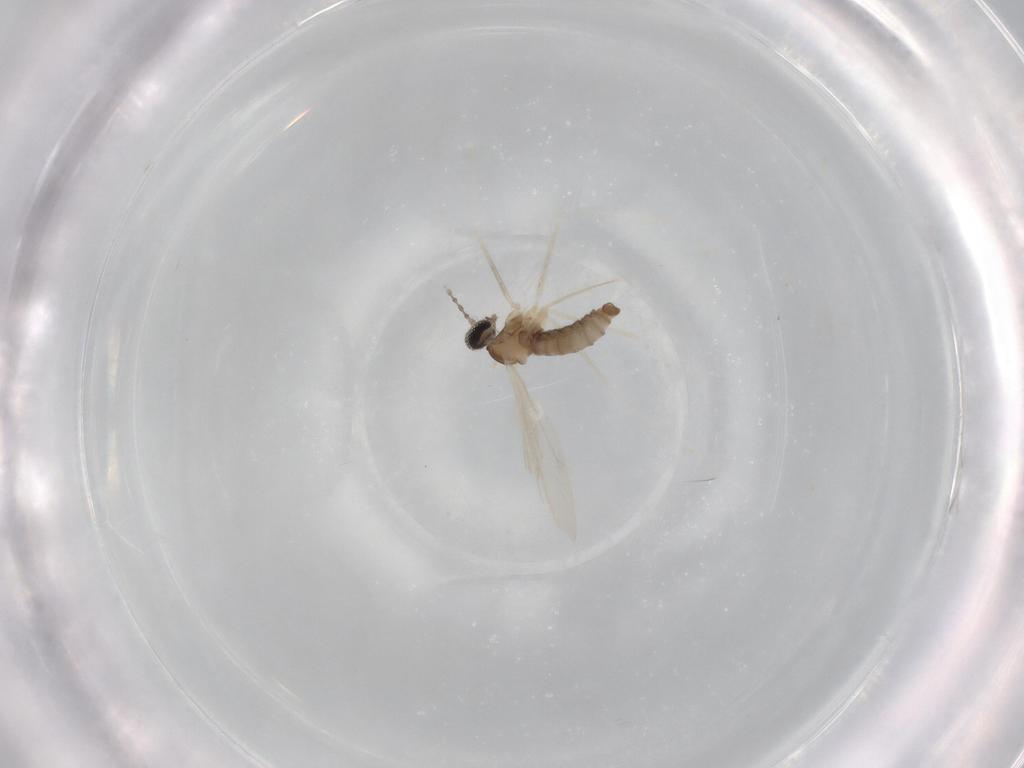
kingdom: Animalia
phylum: Arthropoda
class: Insecta
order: Diptera
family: Cecidomyiidae
